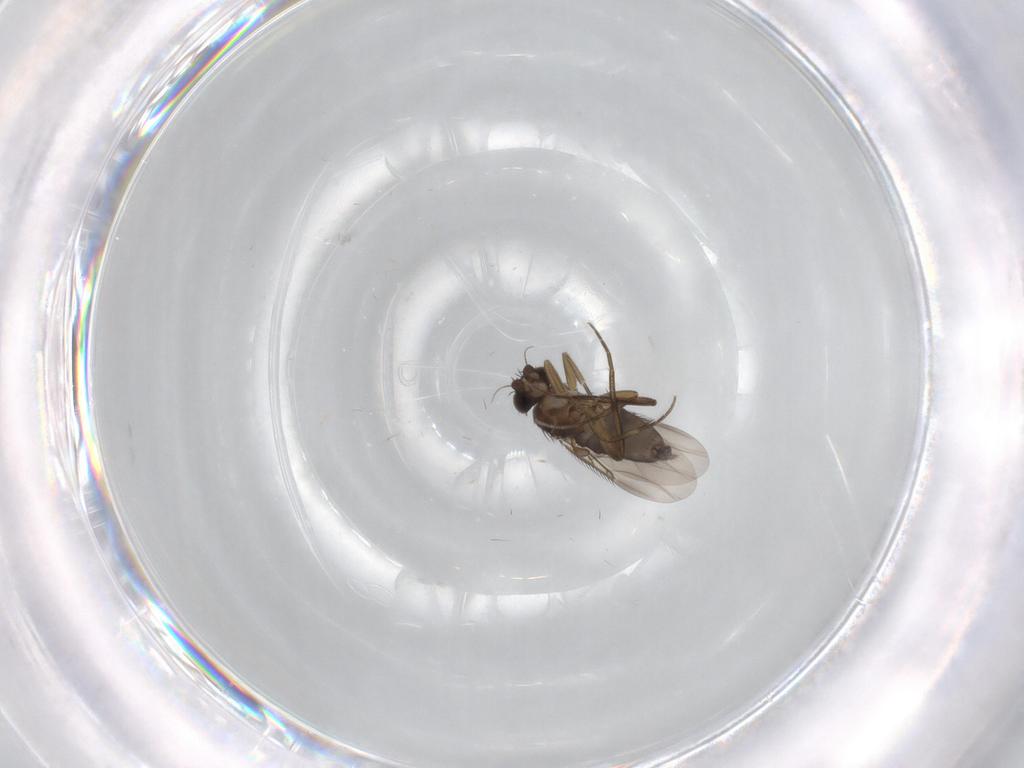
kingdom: Animalia
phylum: Arthropoda
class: Insecta
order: Diptera
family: Phoridae
